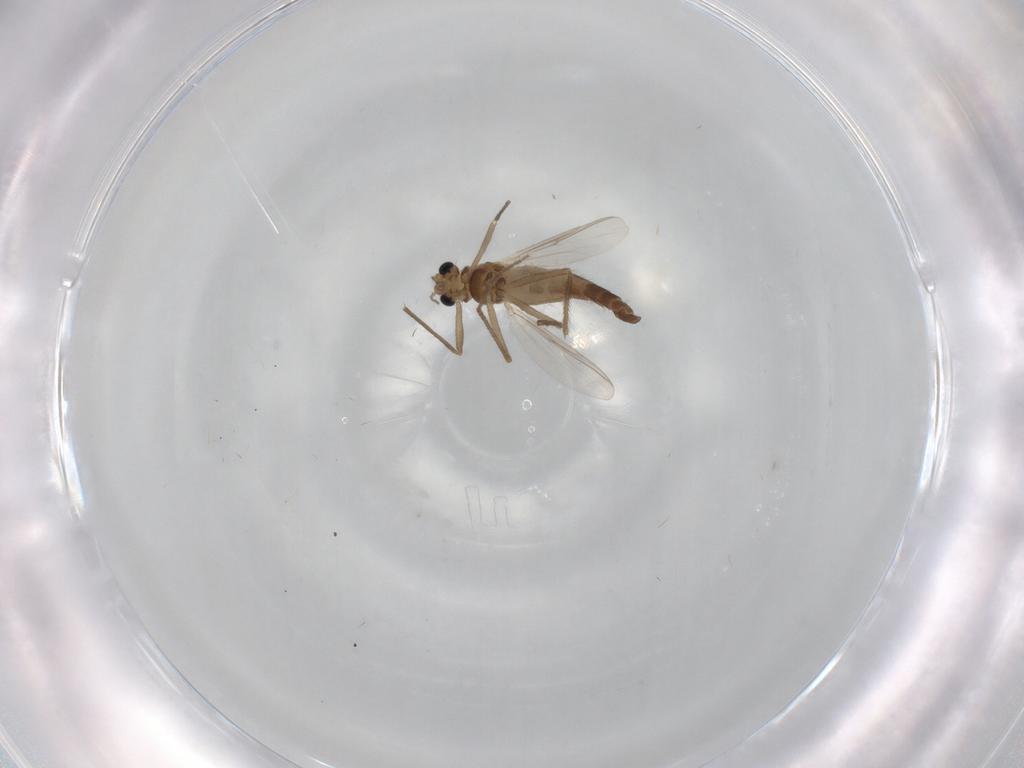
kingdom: Animalia
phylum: Arthropoda
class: Insecta
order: Diptera
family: Chironomidae
